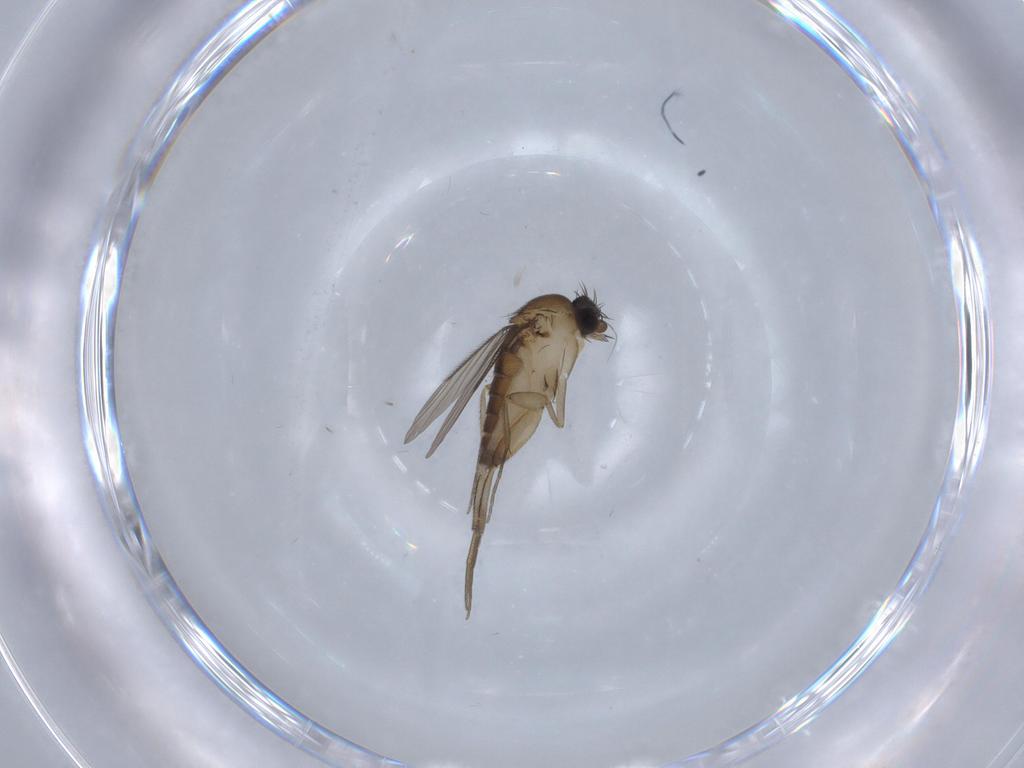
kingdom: Animalia
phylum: Arthropoda
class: Insecta
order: Diptera
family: Phoridae
